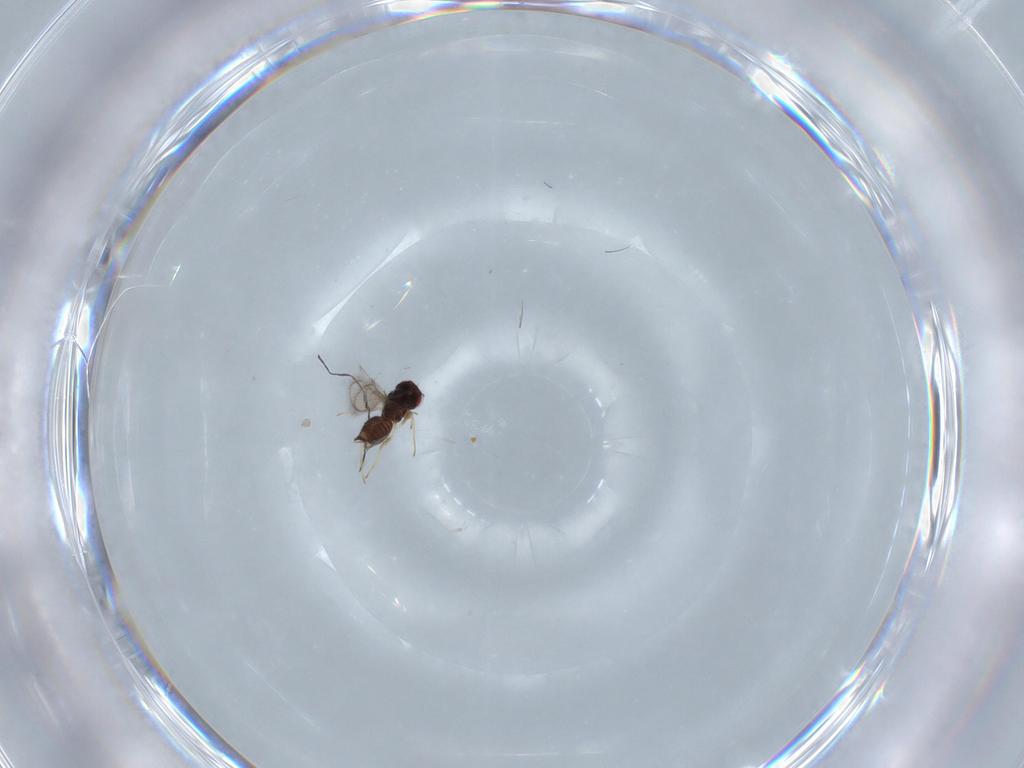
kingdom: Animalia
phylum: Arthropoda
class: Insecta
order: Hymenoptera
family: Eulophidae
